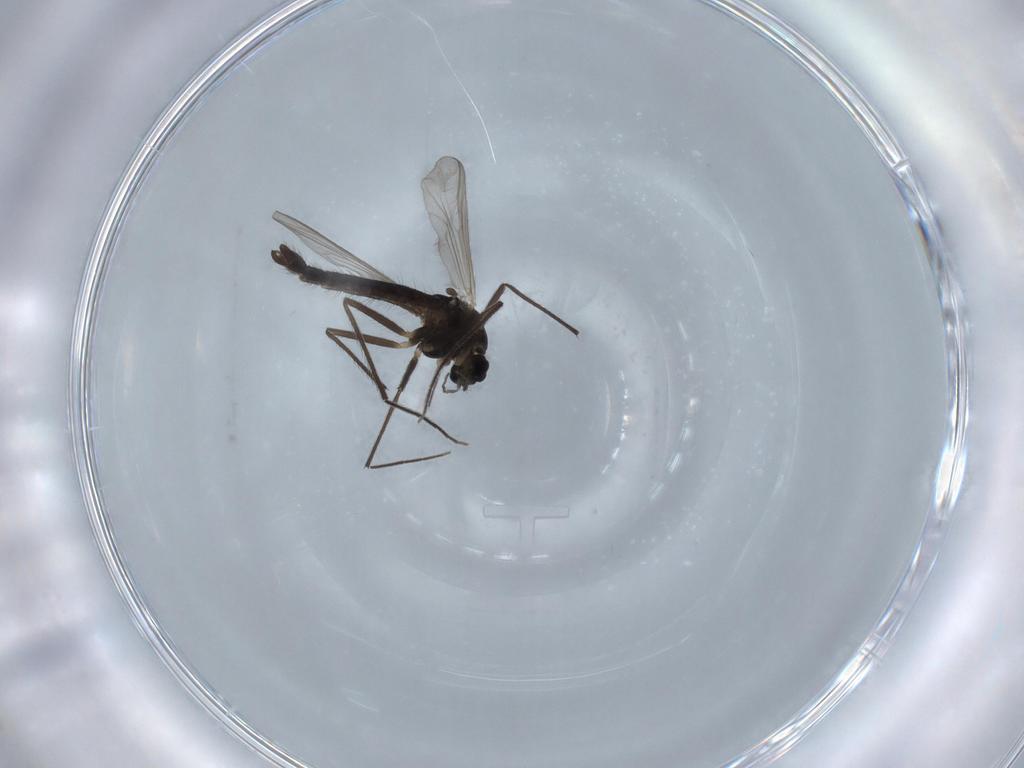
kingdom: Animalia
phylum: Arthropoda
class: Insecta
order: Diptera
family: Chironomidae
